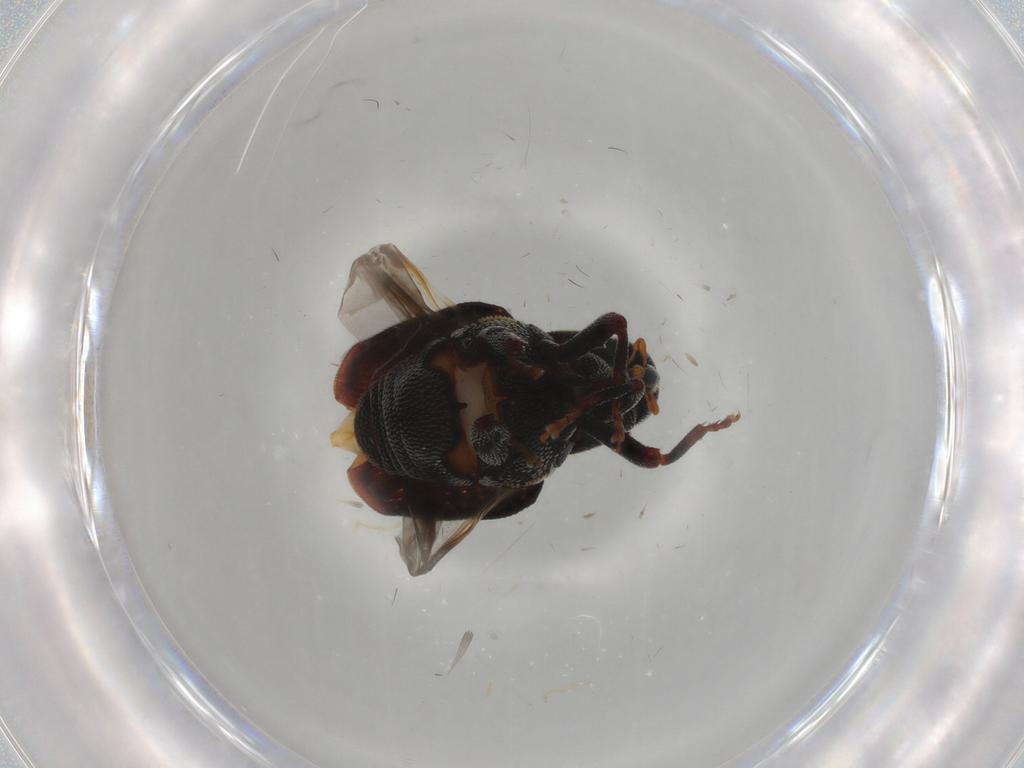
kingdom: Animalia
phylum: Arthropoda
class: Insecta
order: Coleoptera
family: Curculionidae
